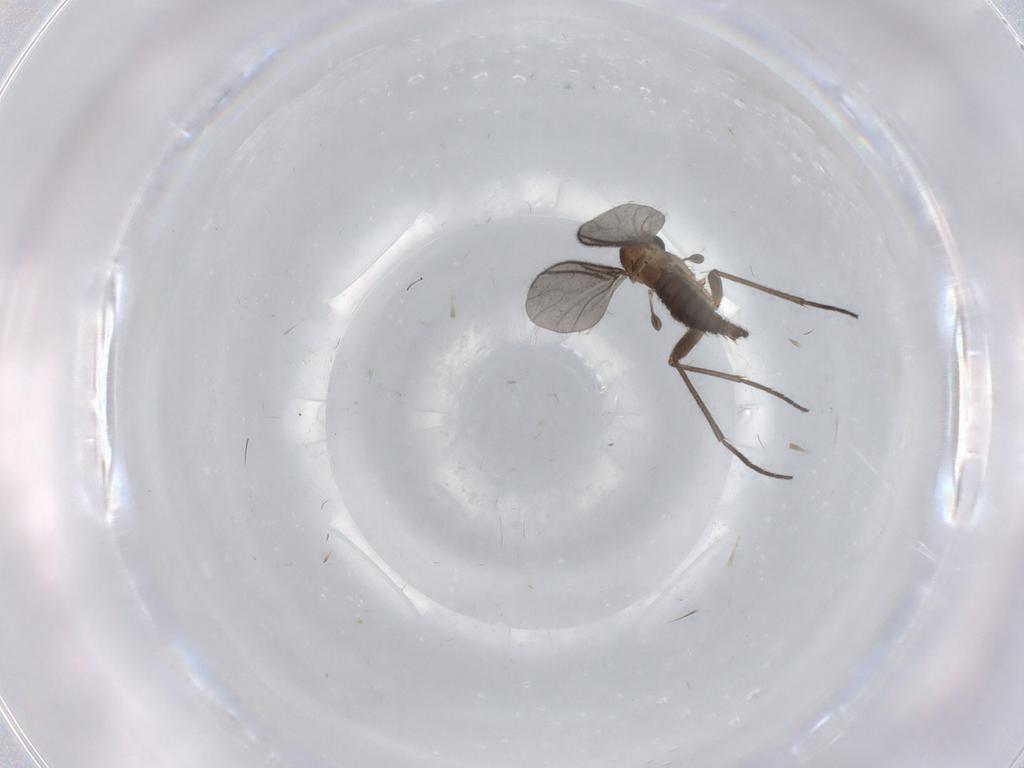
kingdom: Animalia
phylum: Arthropoda
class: Insecta
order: Diptera
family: Sciaridae
